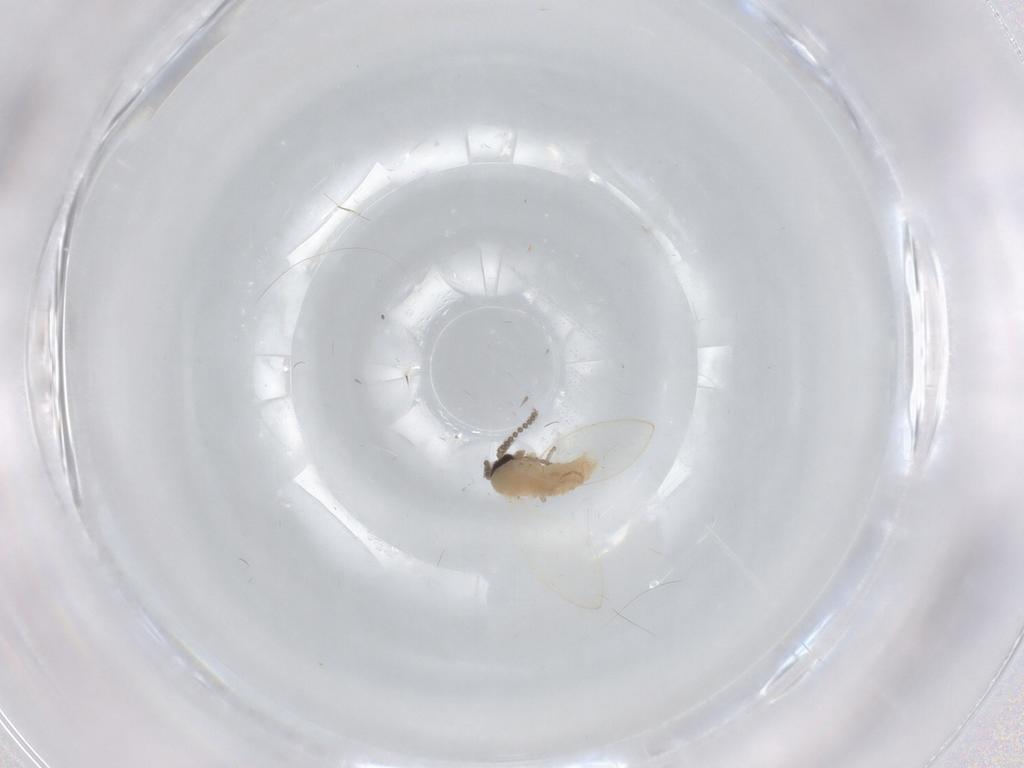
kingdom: Animalia
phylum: Arthropoda
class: Insecta
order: Diptera
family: Psychodidae
